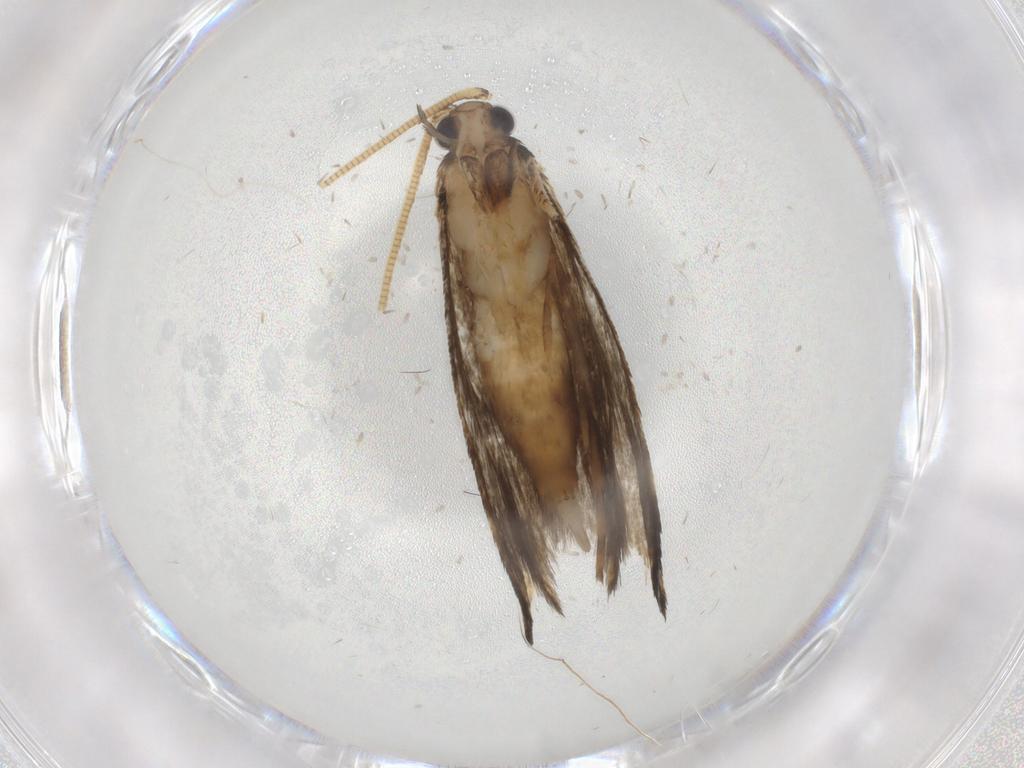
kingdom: Animalia
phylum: Arthropoda
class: Insecta
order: Lepidoptera
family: Tineidae
